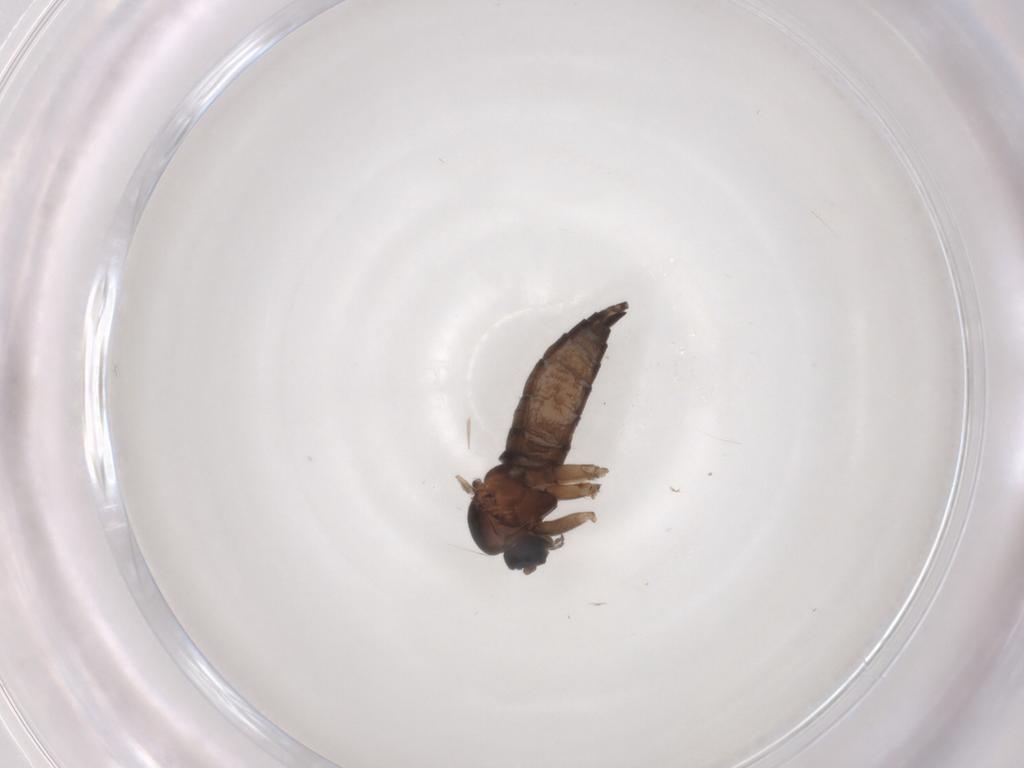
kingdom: Animalia
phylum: Arthropoda
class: Insecta
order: Diptera
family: Sciaridae
